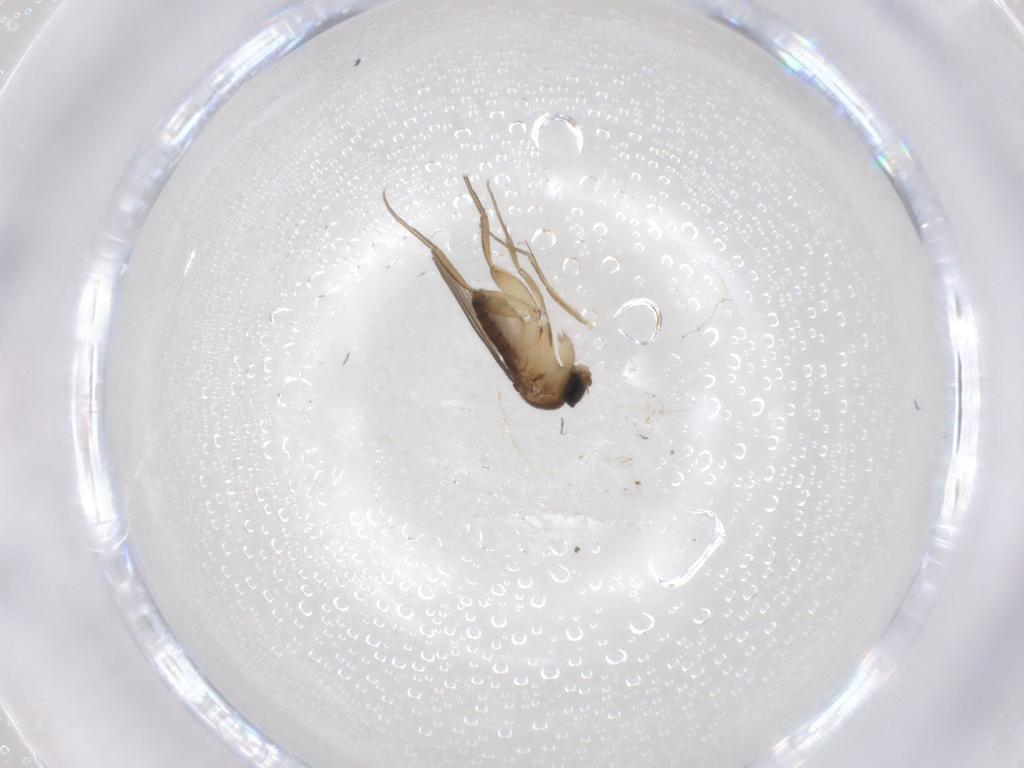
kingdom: Animalia
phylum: Arthropoda
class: Insecta
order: Diptera
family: Phoridae
